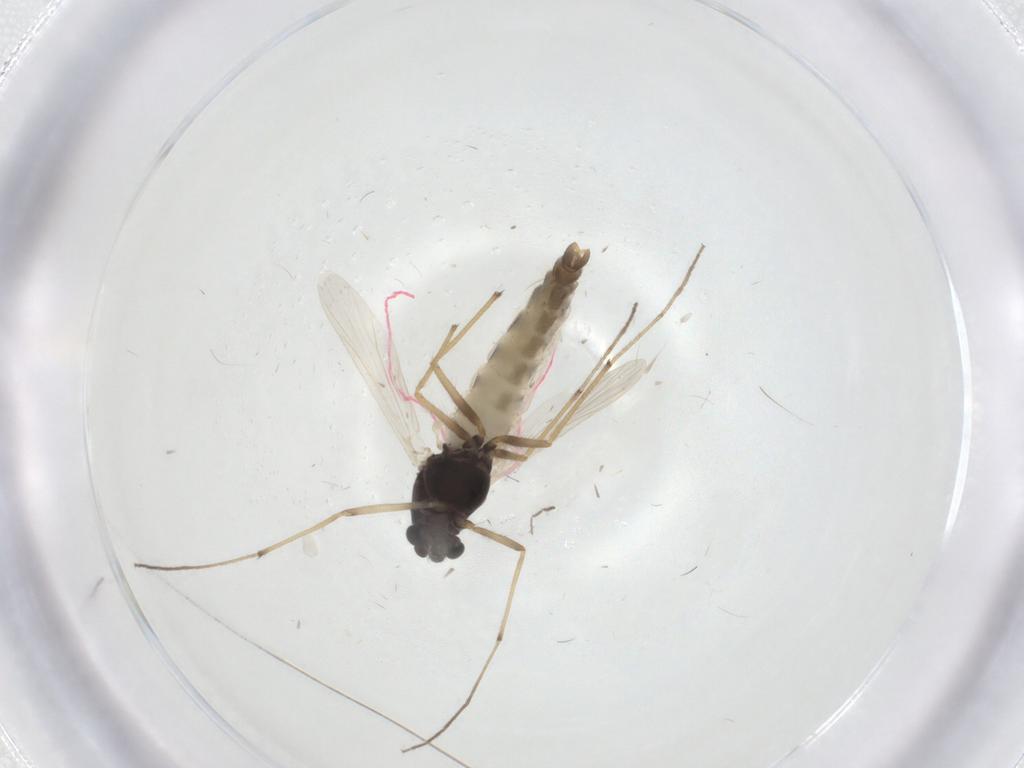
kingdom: Animalia
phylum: Arthropoda
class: Insecta
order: Diptera
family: Chironomidae
